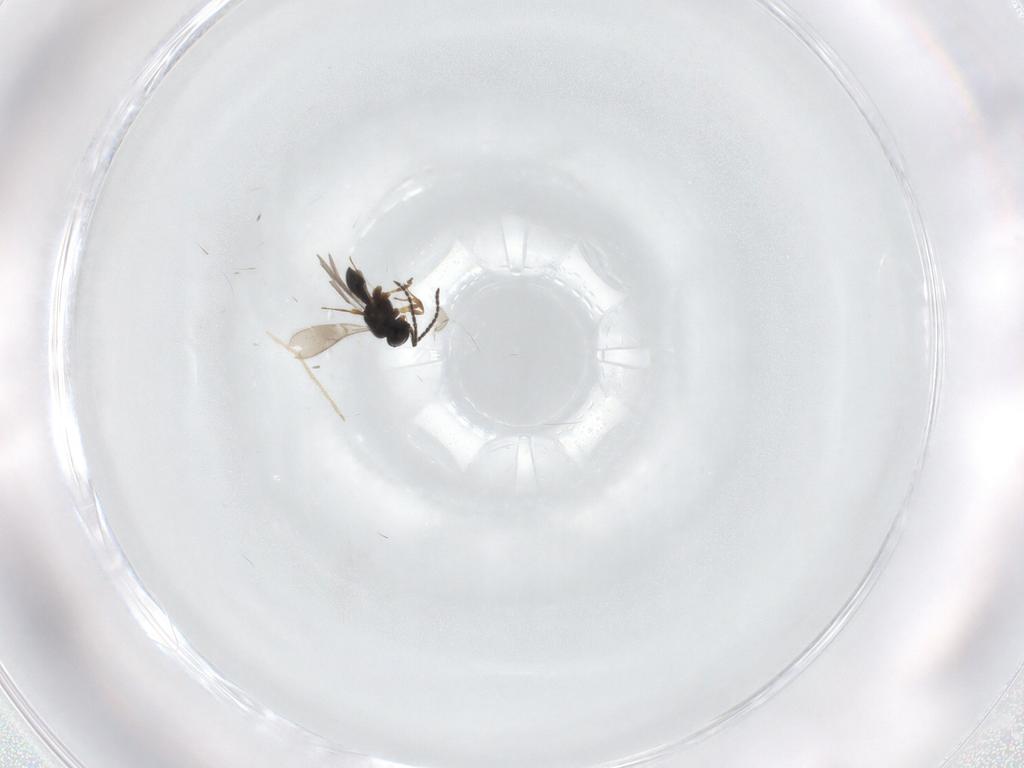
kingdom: Animalia
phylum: Arthropoda
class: Insecta
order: Hymenoptera
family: Scelionidae
